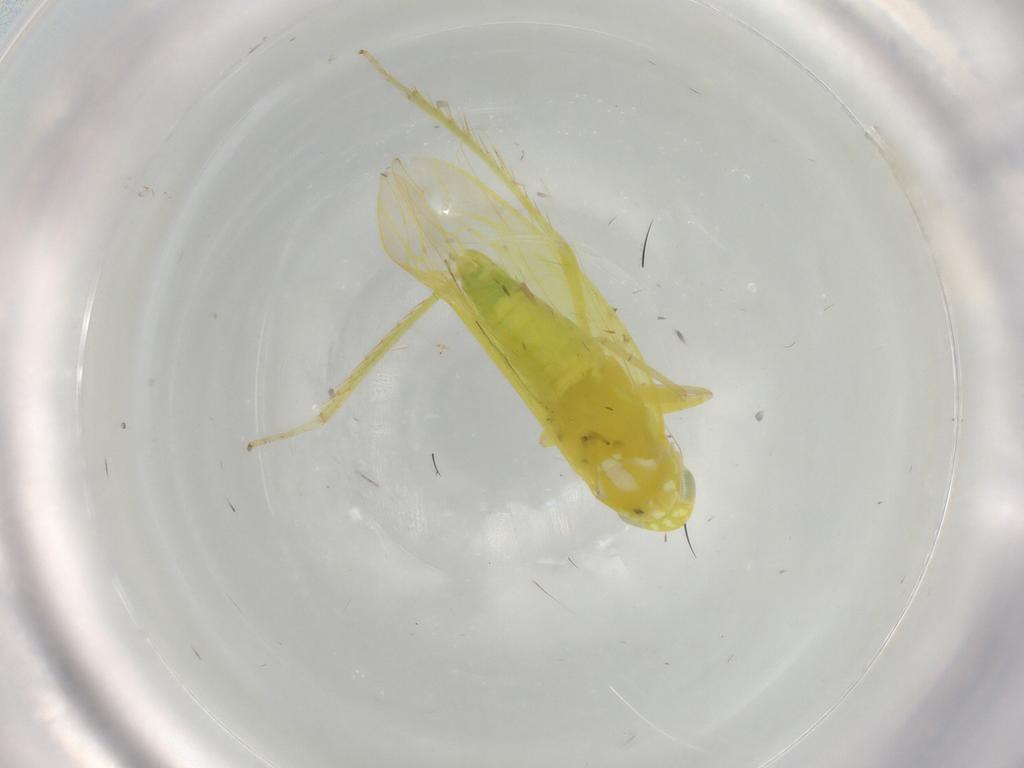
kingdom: Animalia
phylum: Arthropoda
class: Insecta
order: Hemiptera
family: Cicadellidae
